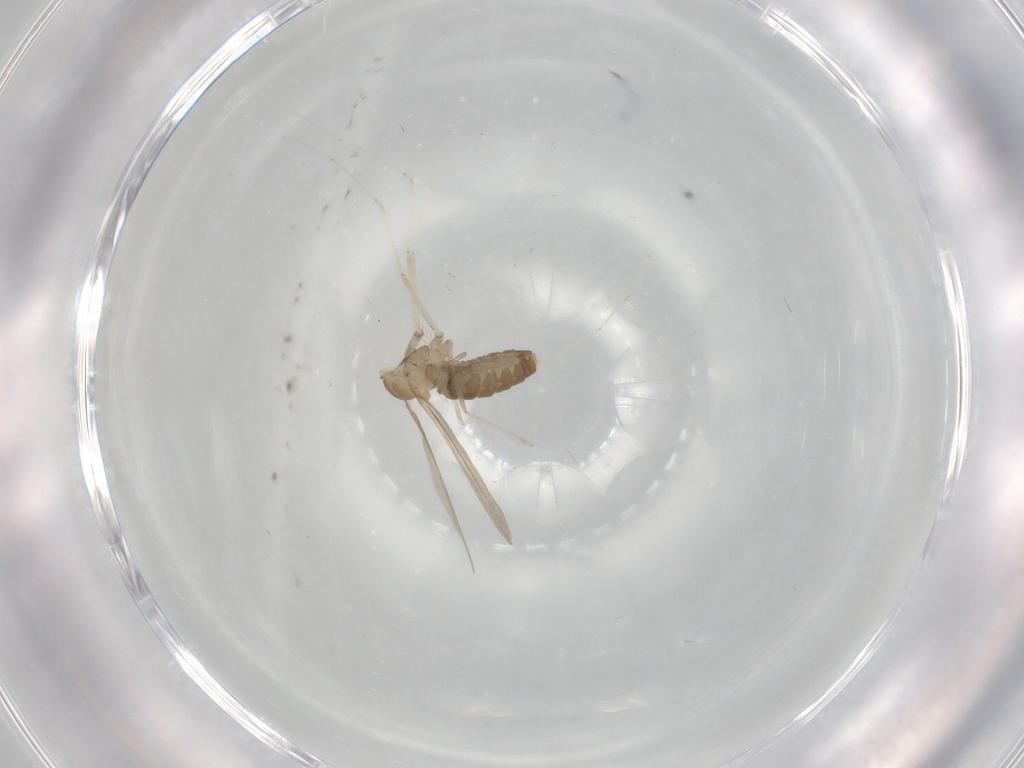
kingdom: Animalia
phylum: Arthropoda
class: Insecta
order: Diptera
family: Cecidomyiidae
